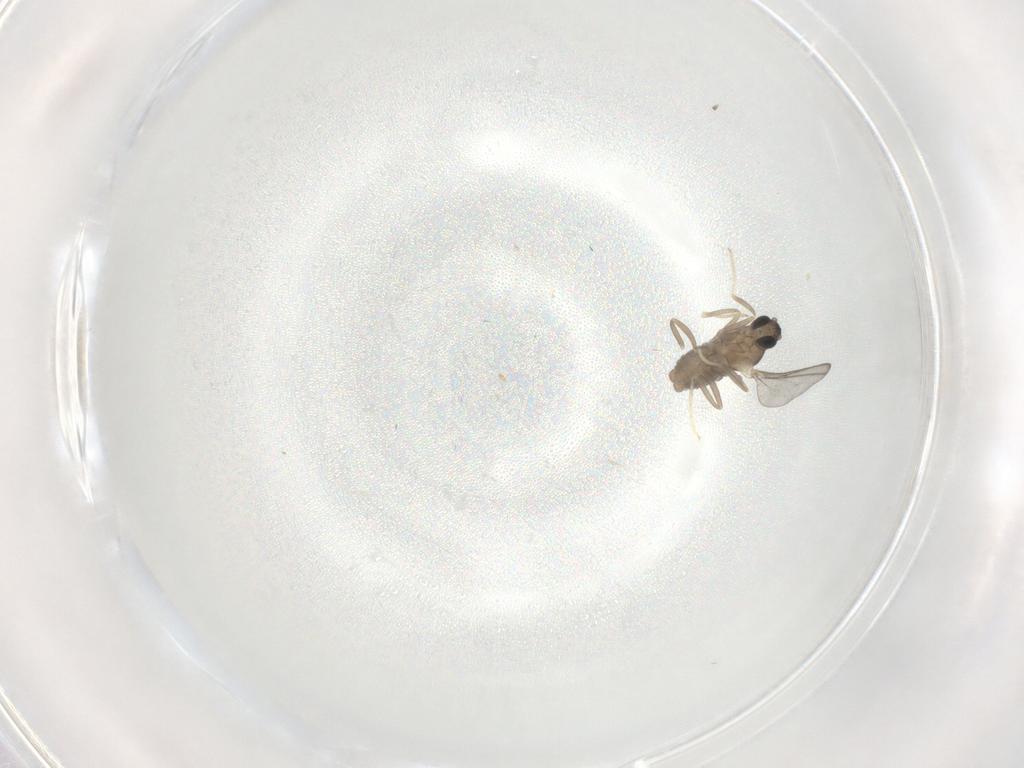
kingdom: Animalia
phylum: Arthropoda
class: Insecta
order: Diptera
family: Cecidomyiidae
